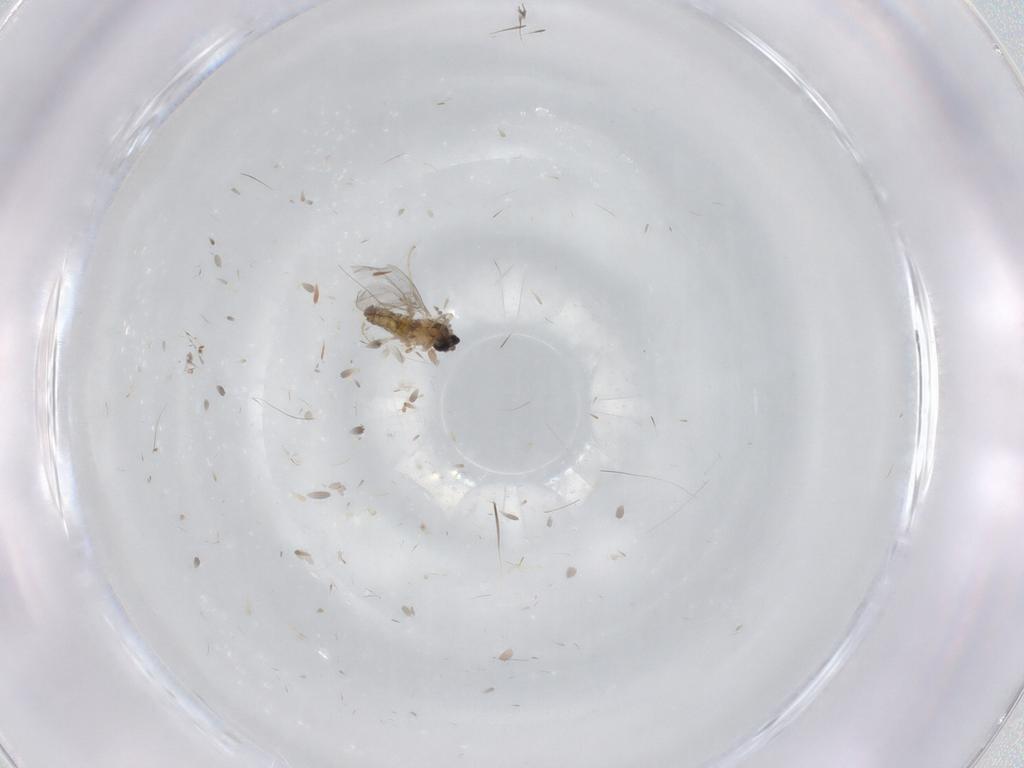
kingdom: Animalia
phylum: Arthropoda
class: Insecta
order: Diptera
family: Cecidomyiidae
